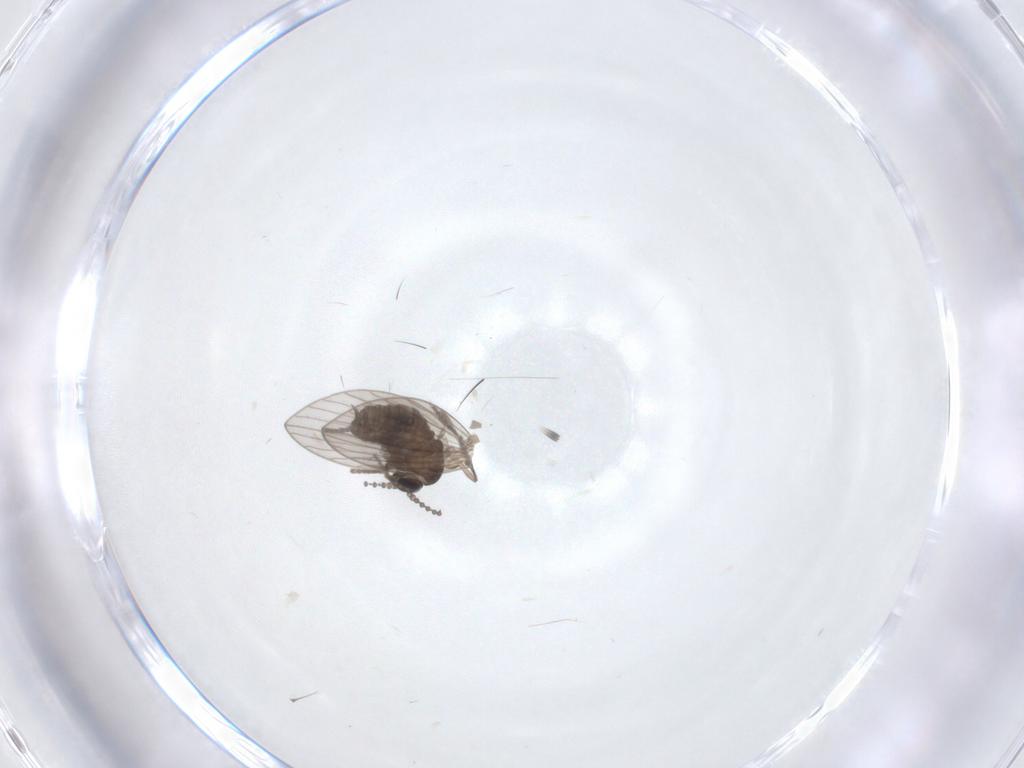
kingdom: Animalia
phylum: Arthropoda
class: Insecta
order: Diptera
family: Psychodidae
